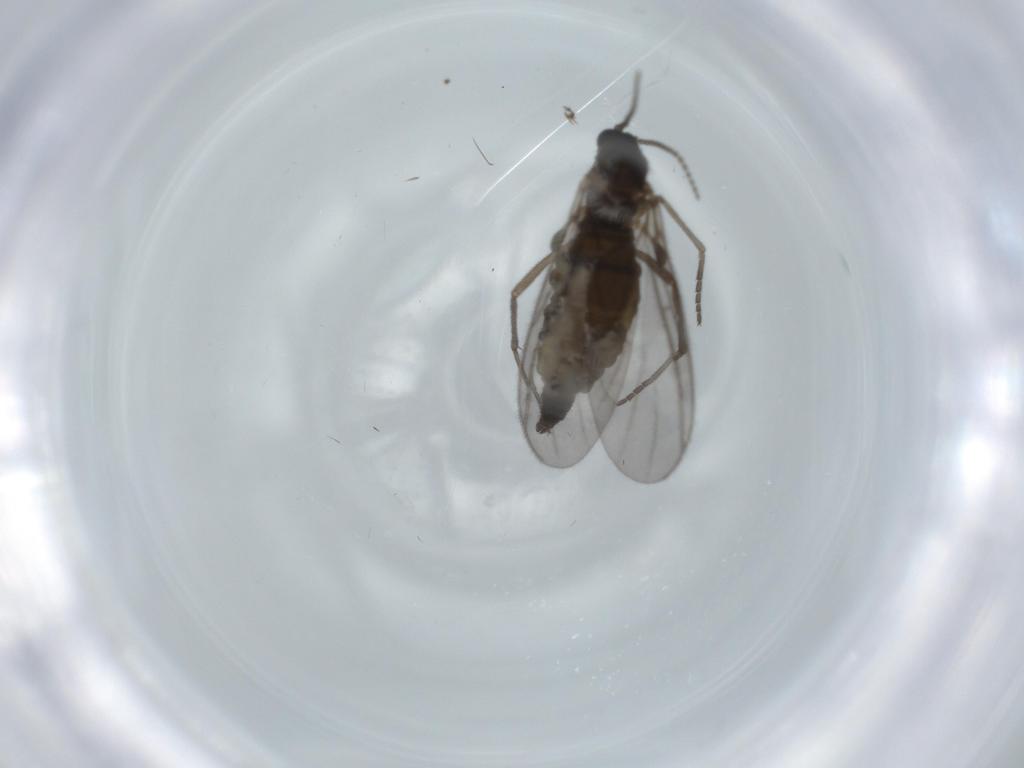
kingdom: Animalia
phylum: Arthropoda
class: Insecta
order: Diptera
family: Sciaridae
